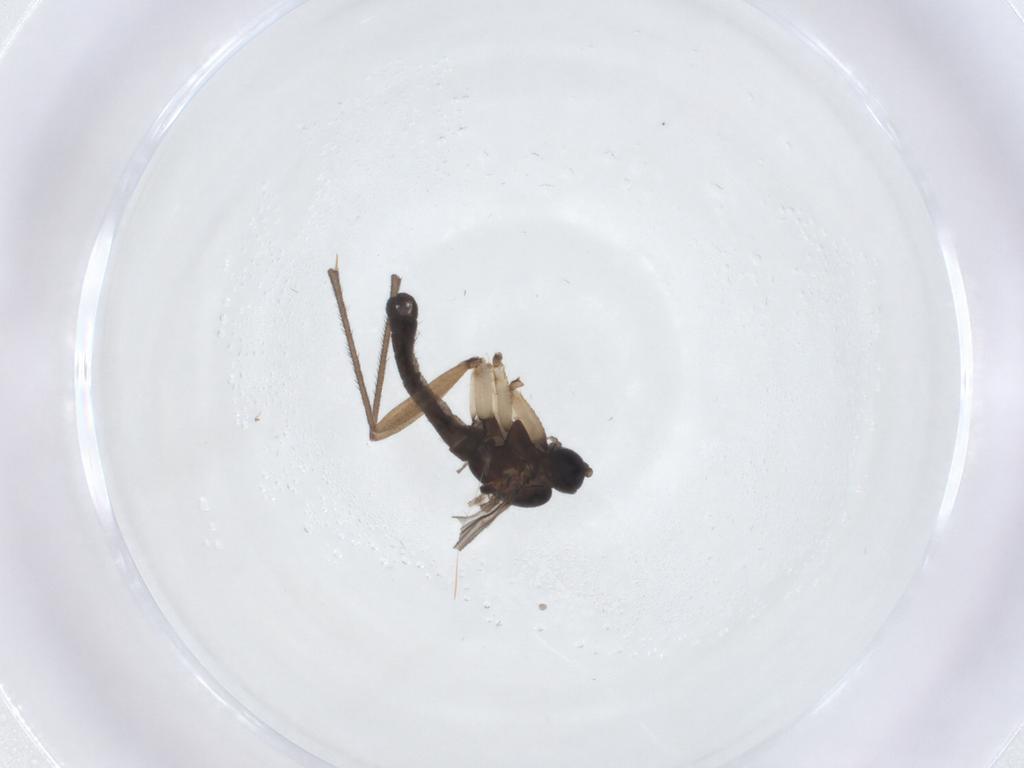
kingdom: Animalia
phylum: Arthropoda
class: Insecta
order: Diptera
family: Sciaridae
